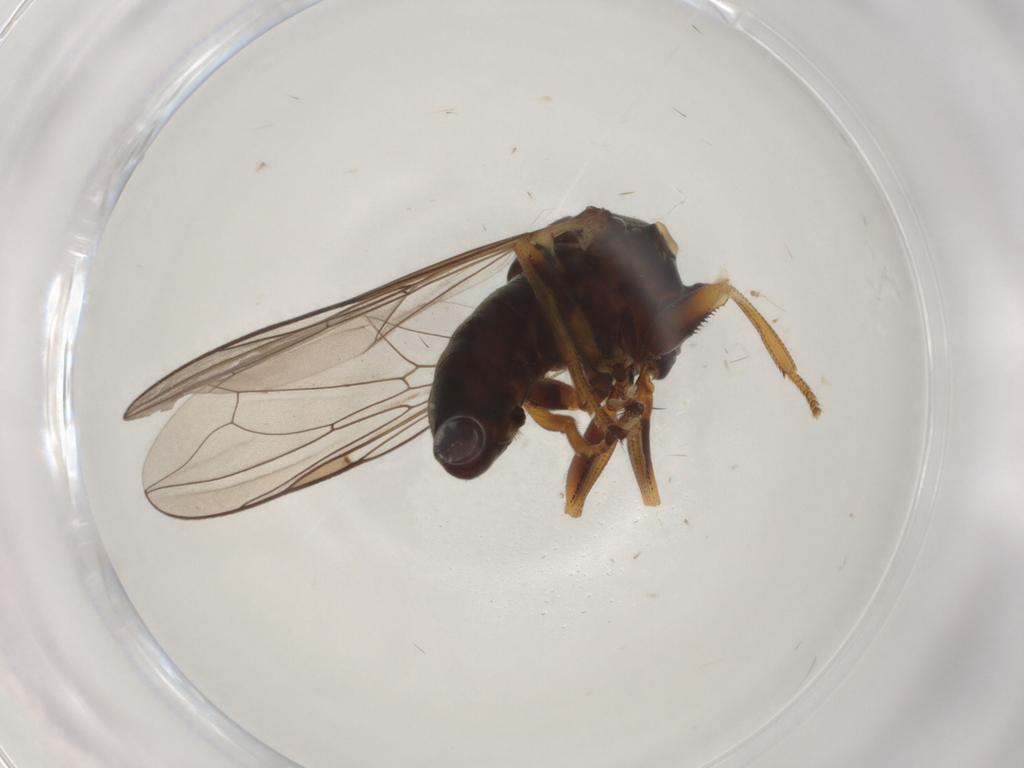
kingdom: Animalia
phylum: Arthropoda
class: Insecta
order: Diptera
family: Pipunculidae
